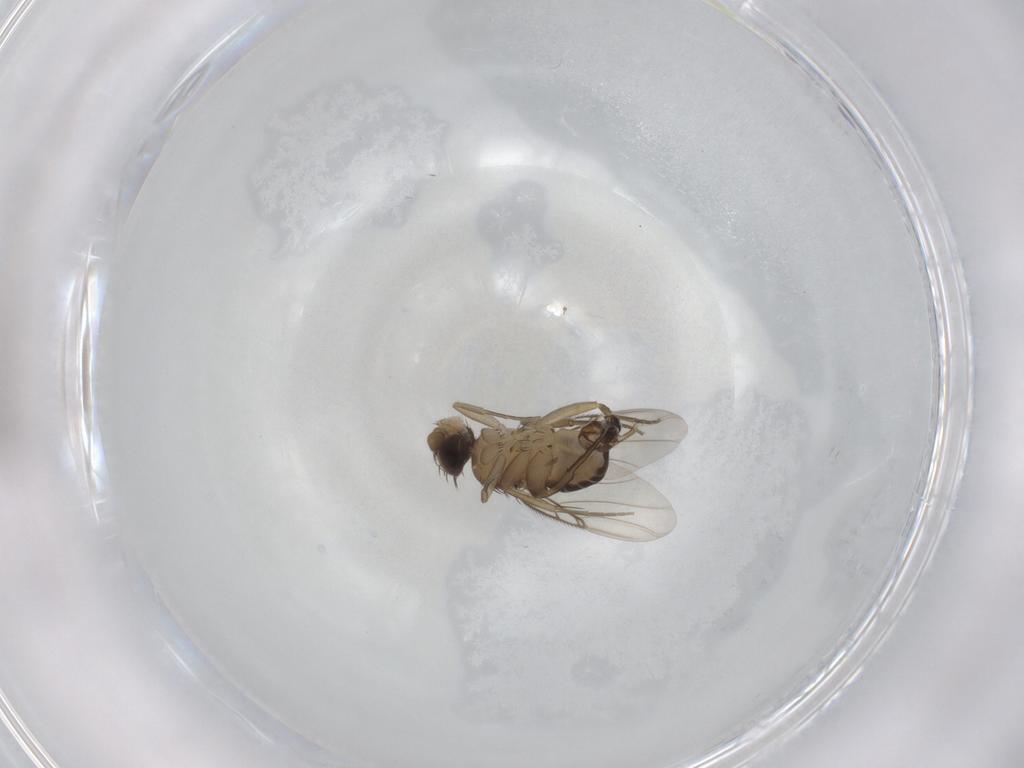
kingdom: Animalia
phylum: Arthropoda
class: Insecta
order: Diptera
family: Phoridae
